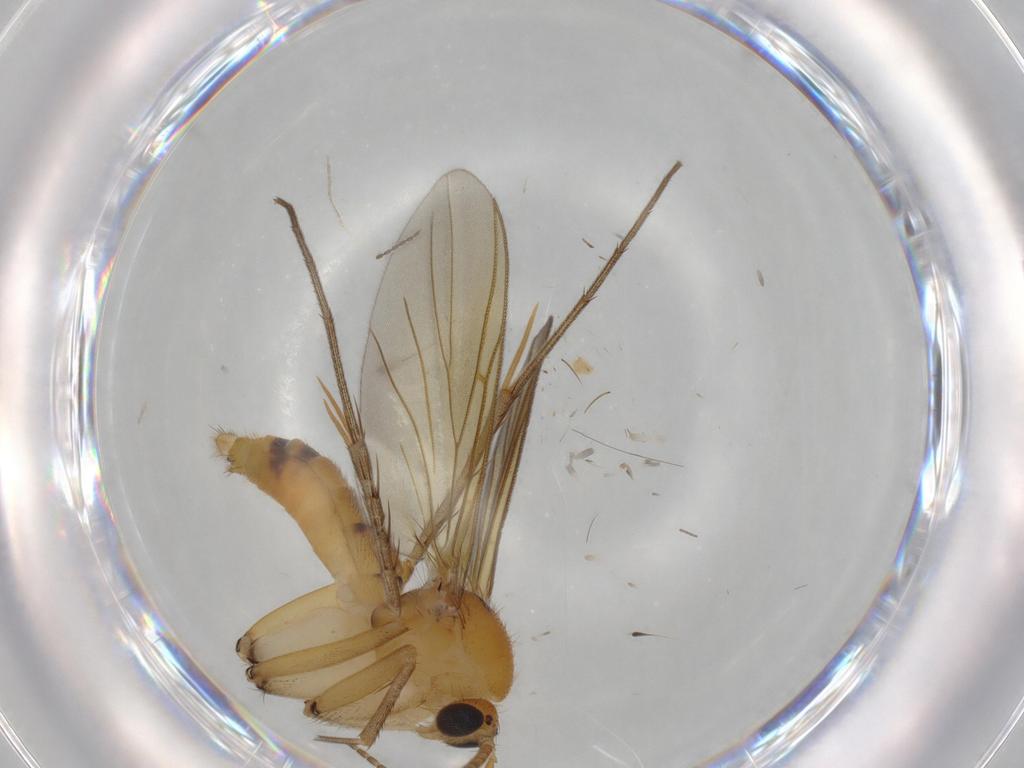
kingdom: Animalia
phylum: Arthropoda
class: Insecta
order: Diptera
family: Mycetophilidae
